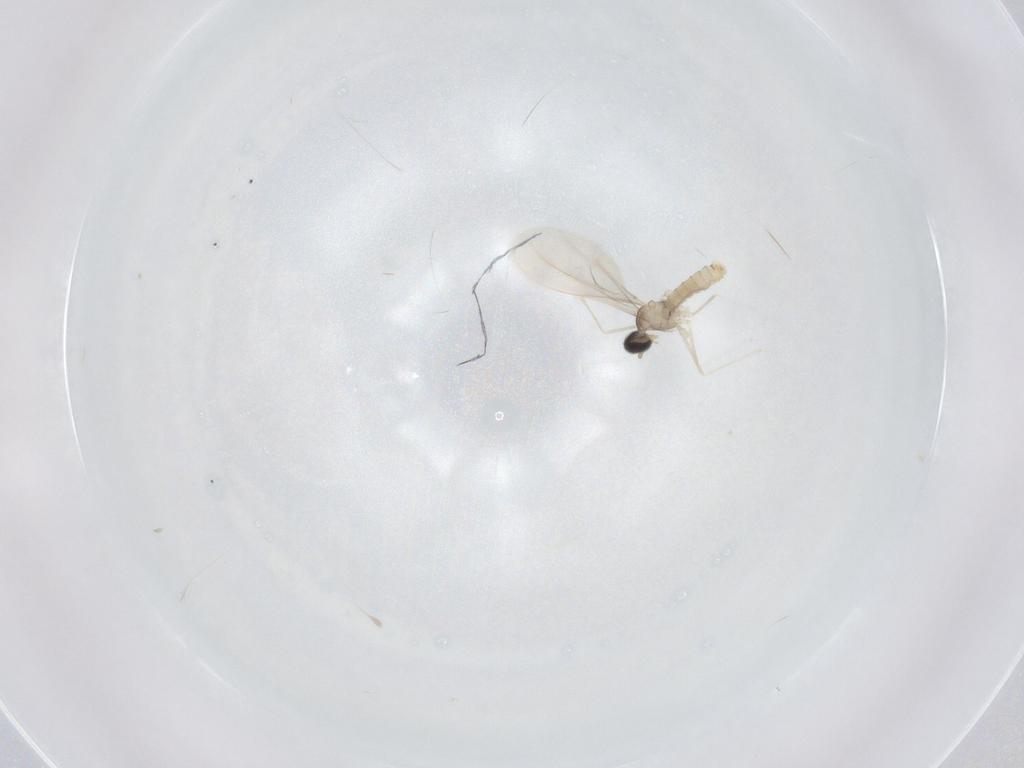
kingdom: Animalia
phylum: Arthropoda
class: Insecta
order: Diptera
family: Cecidomyiidae
